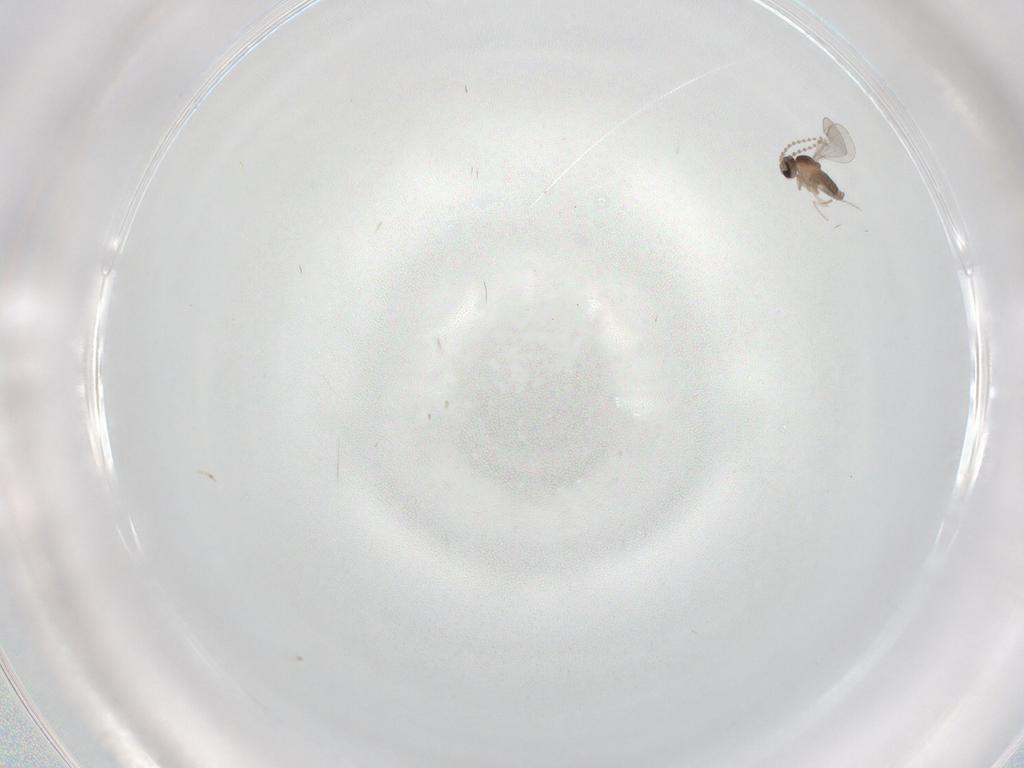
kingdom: Animalia
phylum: Arthropoda
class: Insecta
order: Diptera
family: Cecidomyiidae
